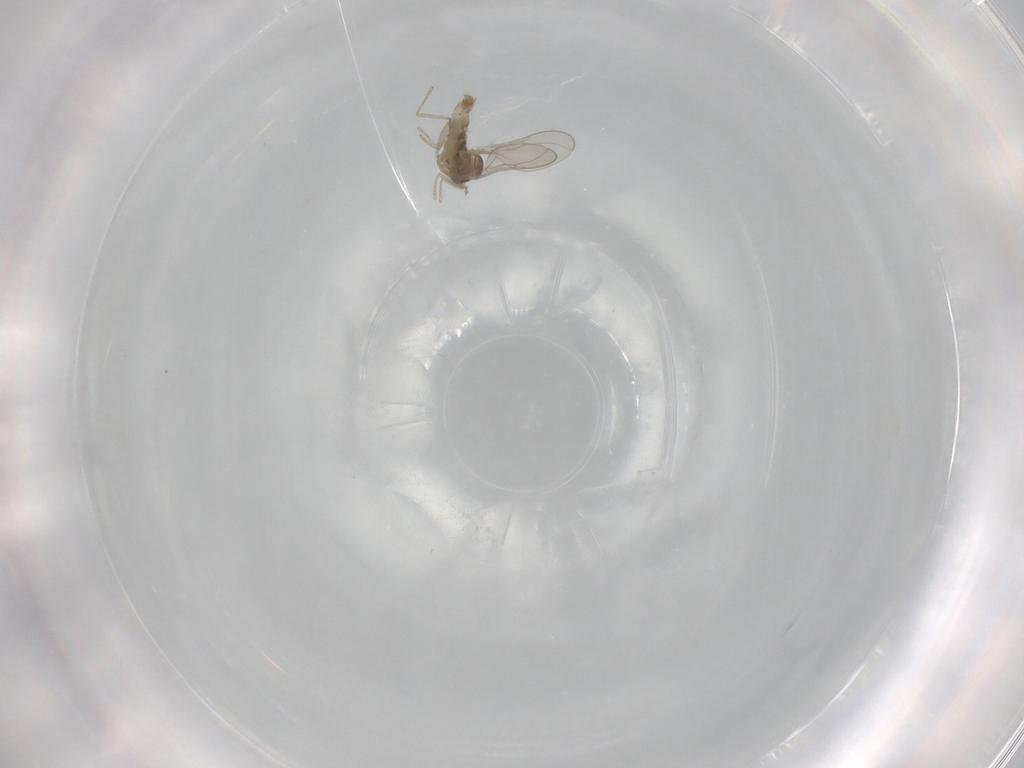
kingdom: Animalia
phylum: Arthropoda
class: Insecta
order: Diptera
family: Cecidomyiidae
